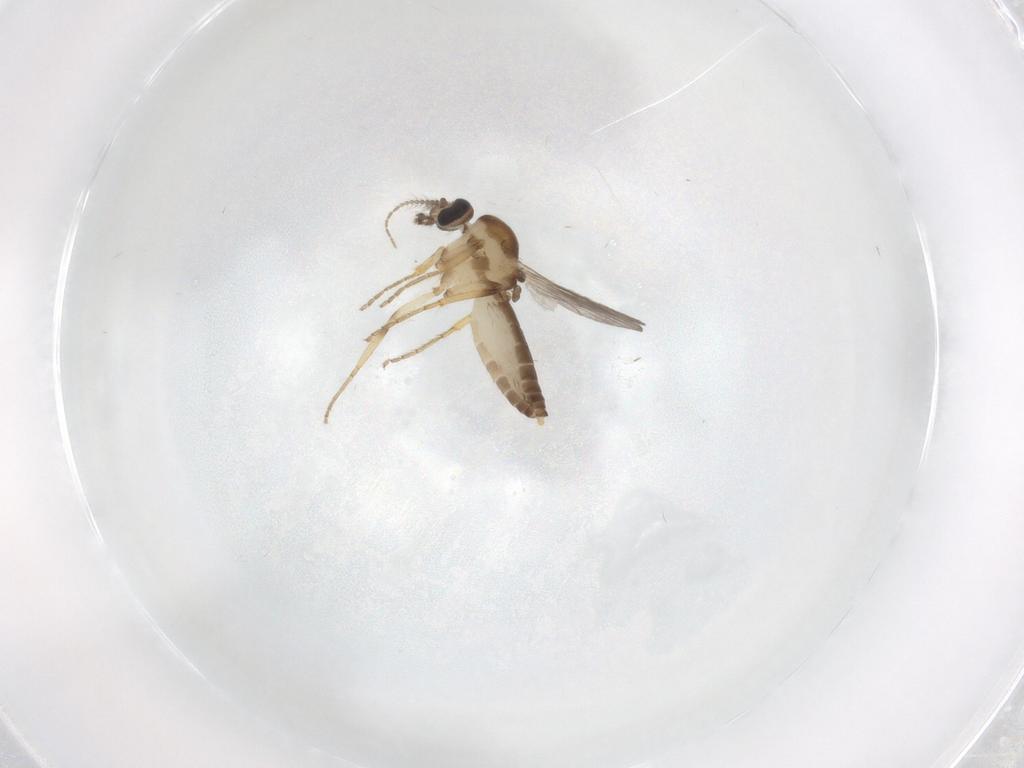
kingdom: Animalia
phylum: Arthropoda
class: Insecta
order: Diptera
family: Ceratopogonidae
